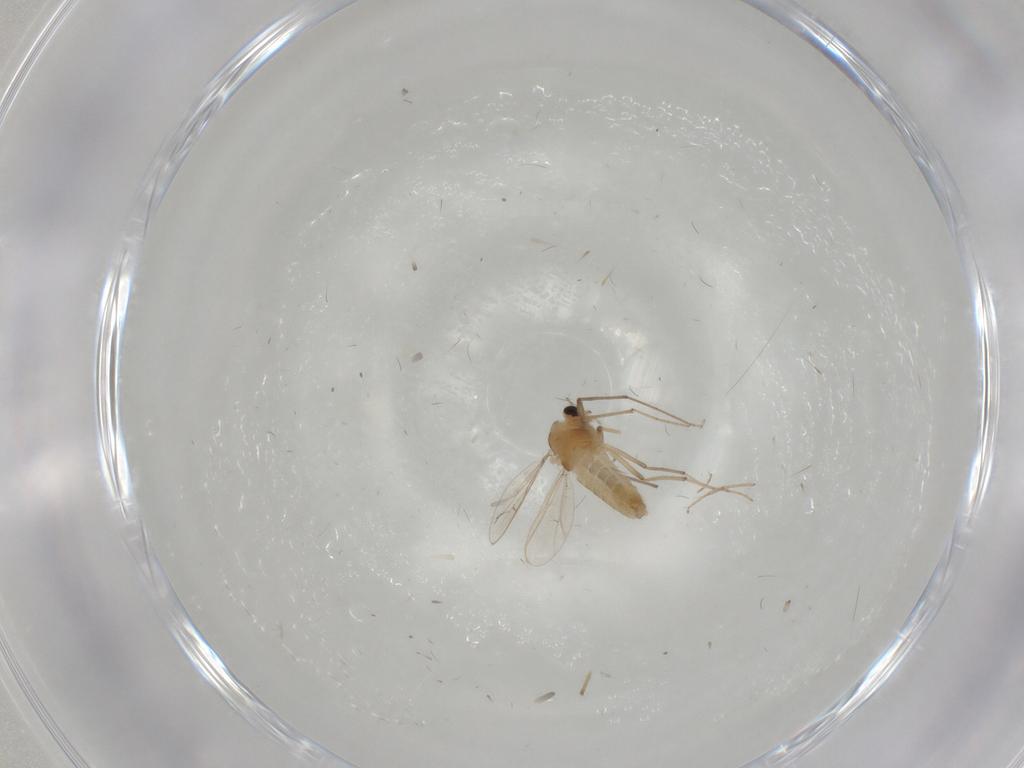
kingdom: Animalia
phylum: Arthropoda
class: Insecta
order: Diptera
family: Chironomidae
